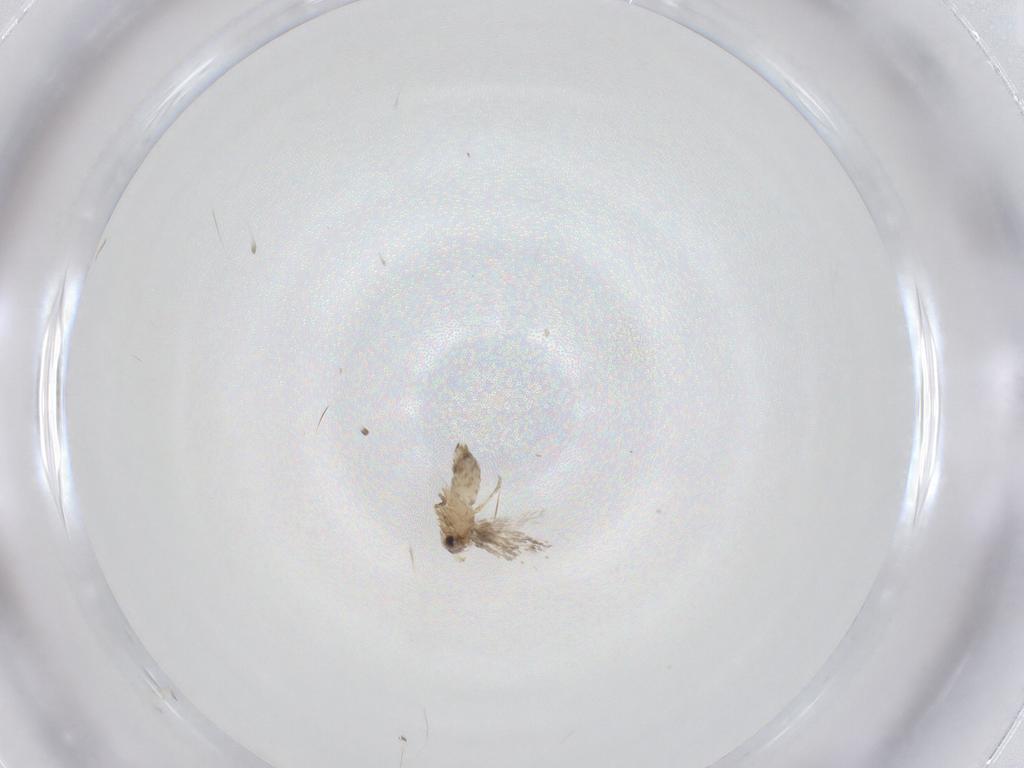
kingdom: Animalia
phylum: Arthropoda
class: Insecta
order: Lepidoptera
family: Nepticulidae
